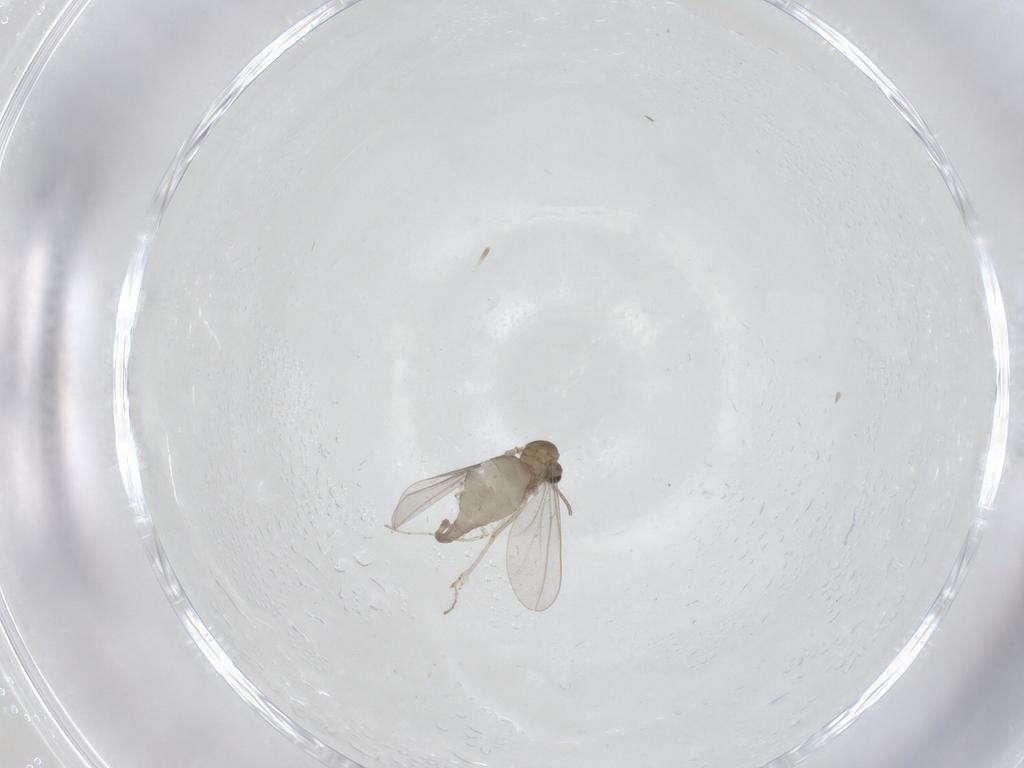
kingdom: Animalia
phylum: Arthropoda
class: Insecta
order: Diptera
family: Cecidomyiidae
